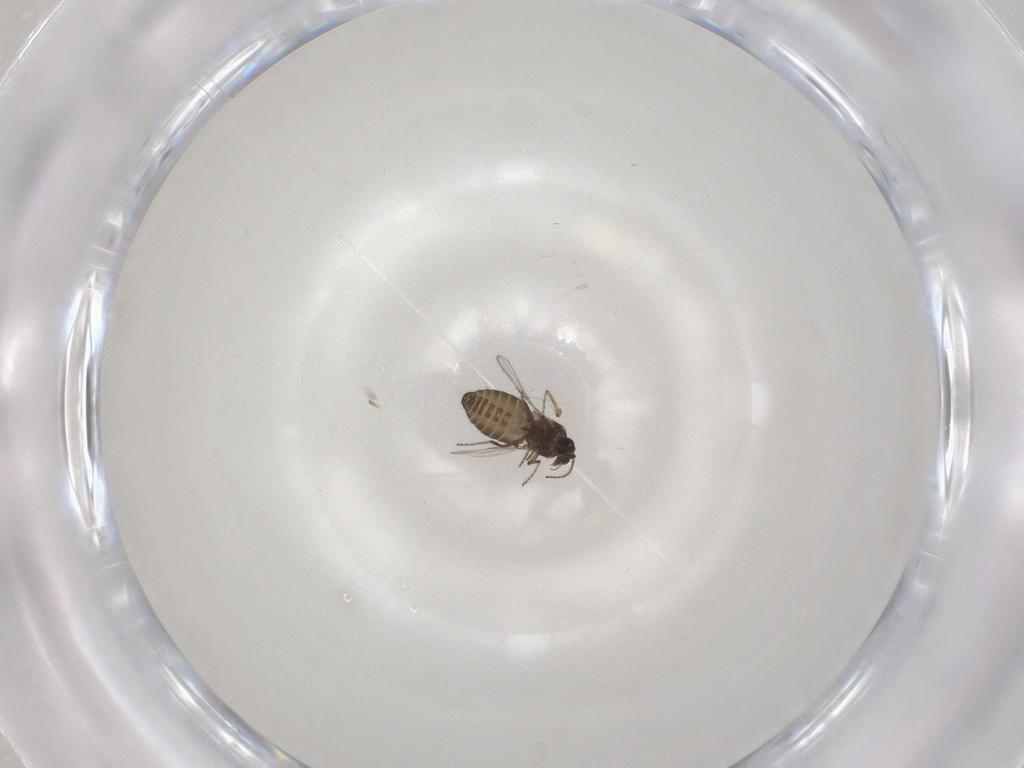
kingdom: Animalia
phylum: Arthropoda
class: Insecta
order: Diptera
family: Ceratopogonidae
